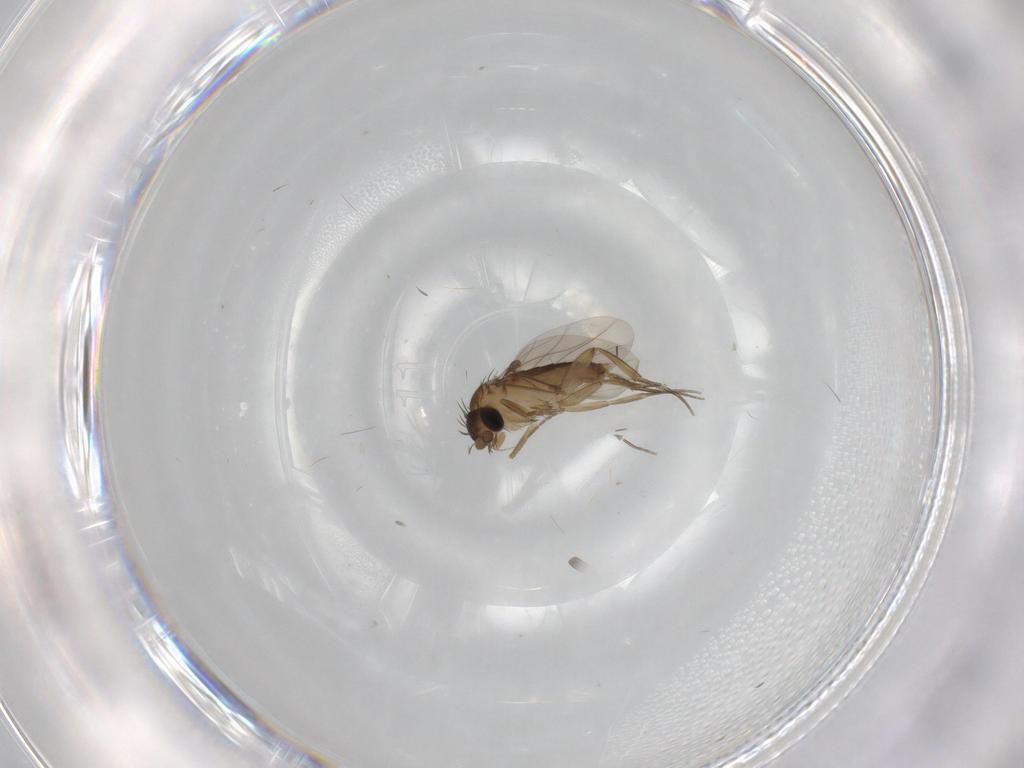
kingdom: Animalia
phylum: Arthropoda
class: Insecta
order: Diptera
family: Phoridae
